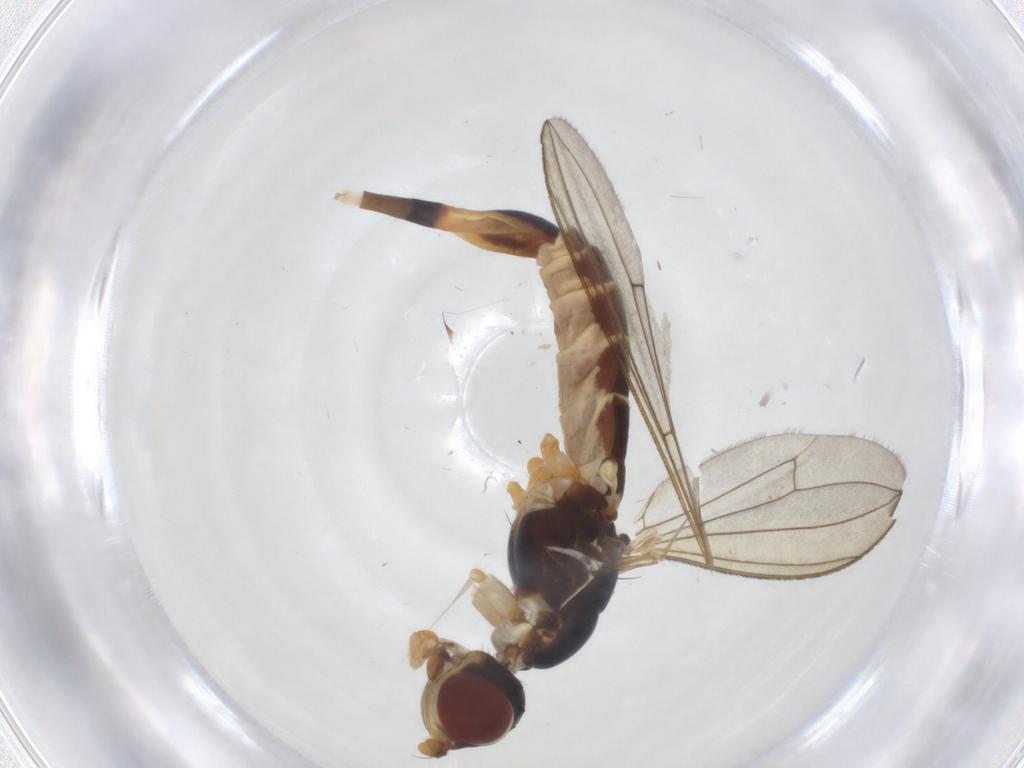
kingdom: Animalia
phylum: Arthropoda
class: Insecta
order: Diptera
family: Micropezidae
